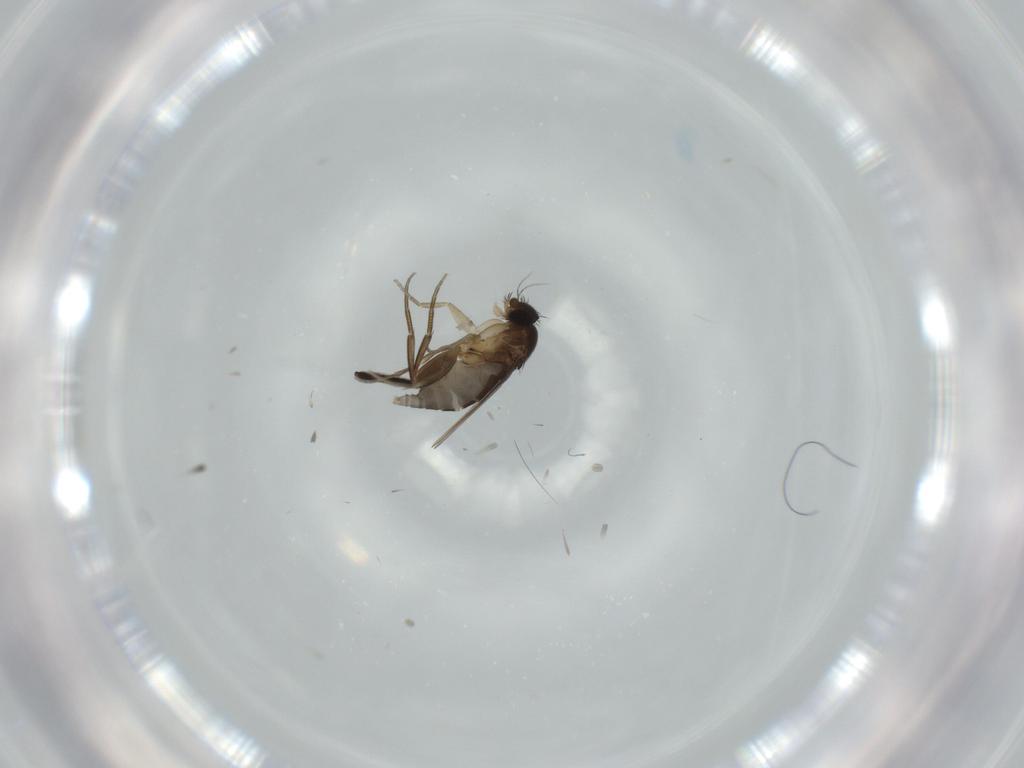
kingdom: Animalia
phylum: Arthropoda
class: Insecta
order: Diptera
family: Phoridae
